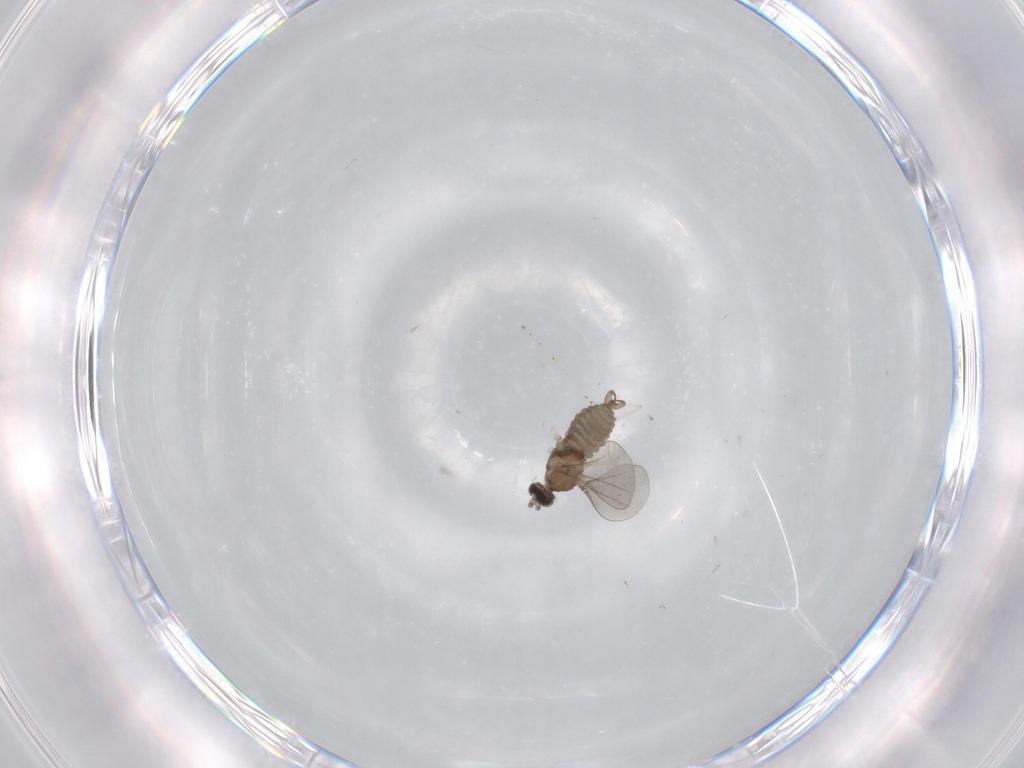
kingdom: Animalia
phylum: Arthropoda
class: Insecta
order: Diptera
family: Cecidomyiidae
